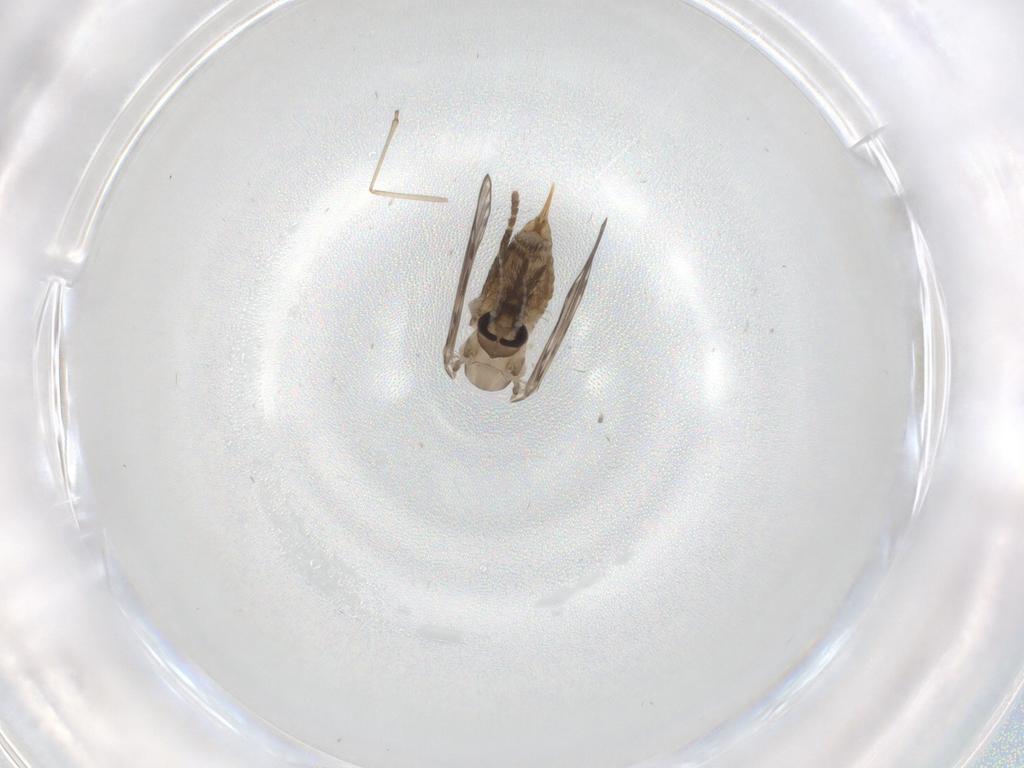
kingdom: Animalia
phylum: Arthropoda
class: Insecta
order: Diptera
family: Psychodidae
